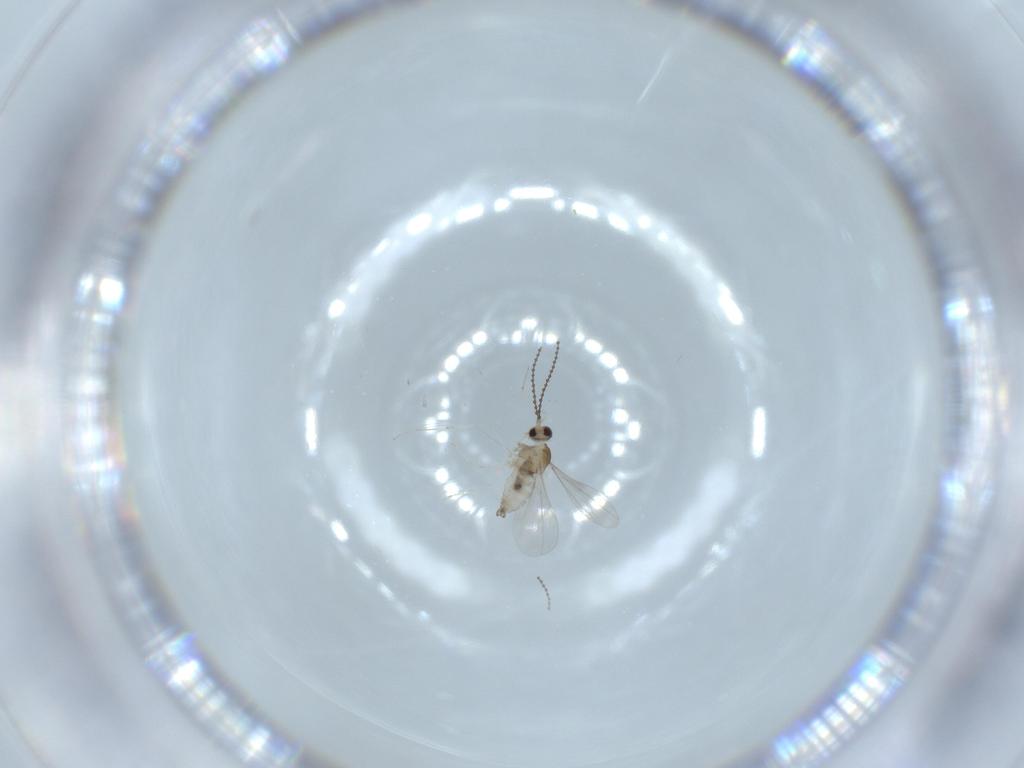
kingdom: Animalia
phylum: Arthropoda
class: Insecta
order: Diptera
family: Cecidomyiidae
